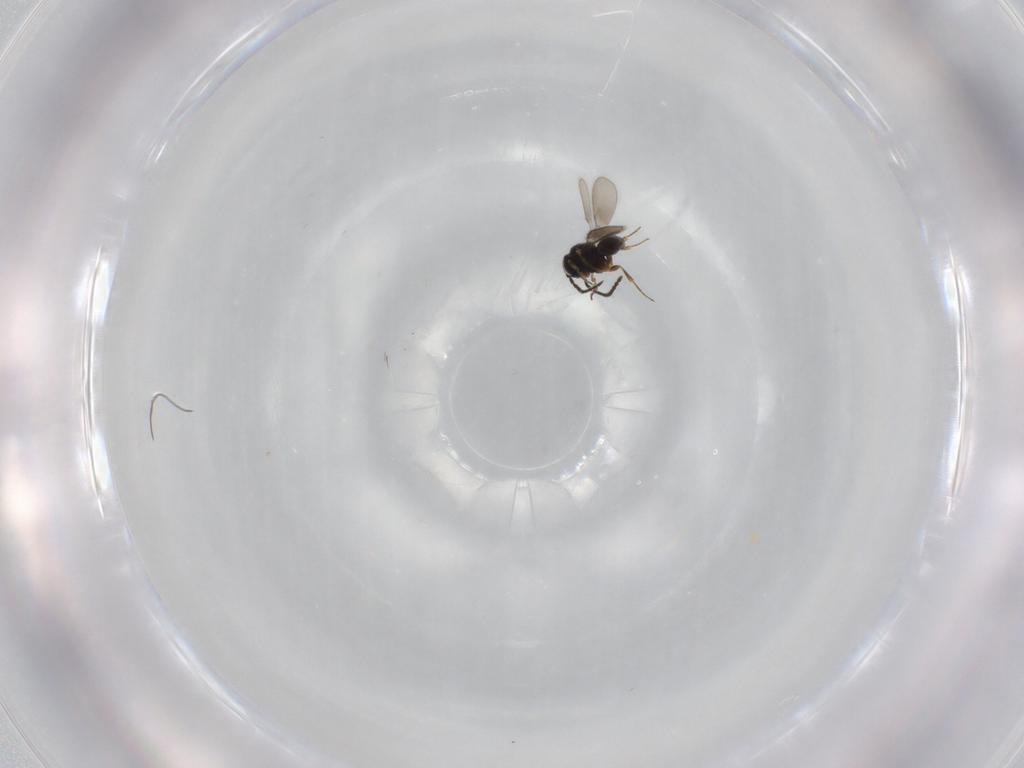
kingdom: Animalia
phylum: Arthropoda
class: Insecta
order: Hymenoptera
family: Scelionidae
